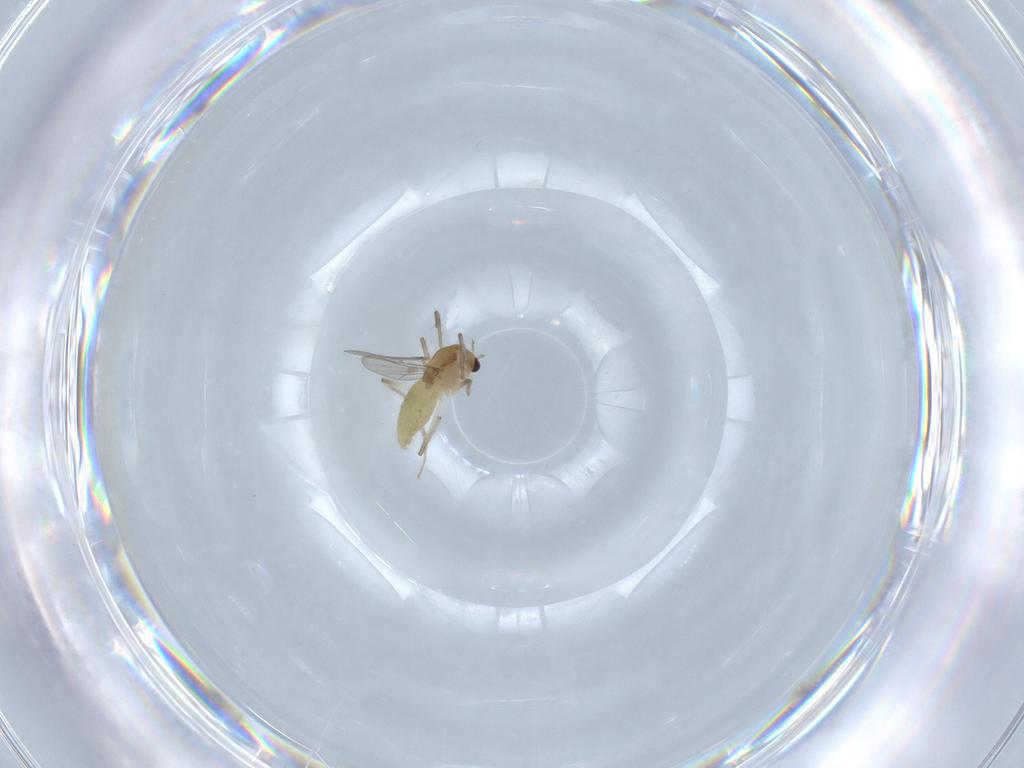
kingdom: Animalia
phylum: Arthropoda
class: Insecta
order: Diptera
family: Chironomidae
